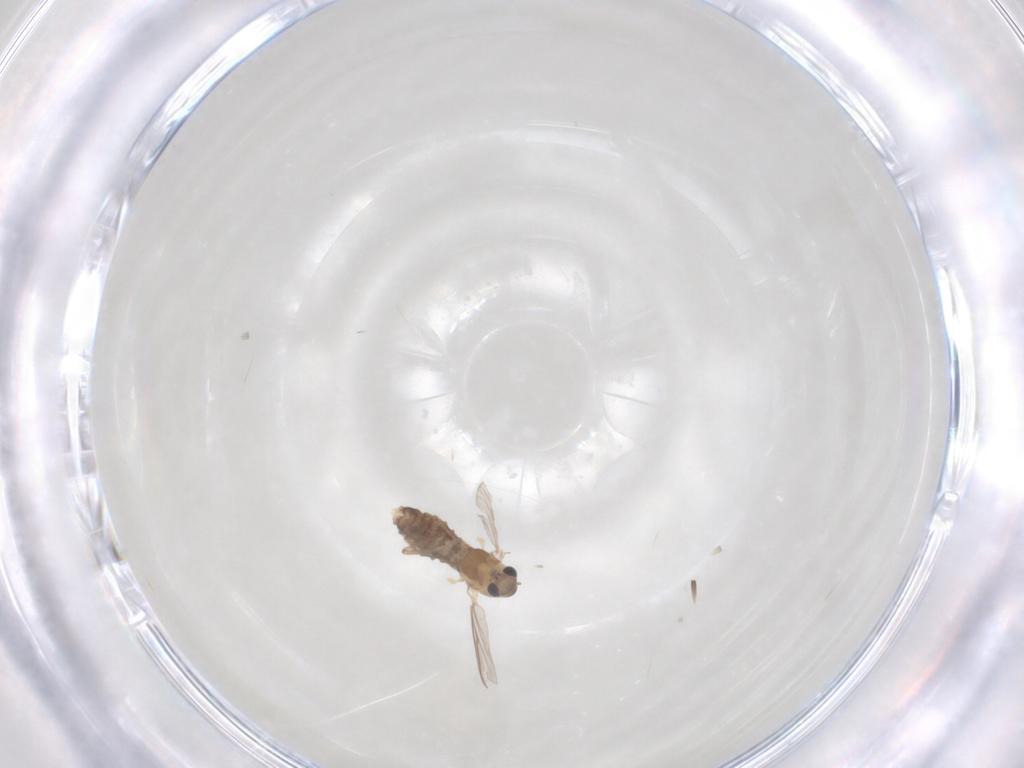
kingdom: Animalia
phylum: Arthropoda
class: Insecta
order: Diptera
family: Chironomidae
